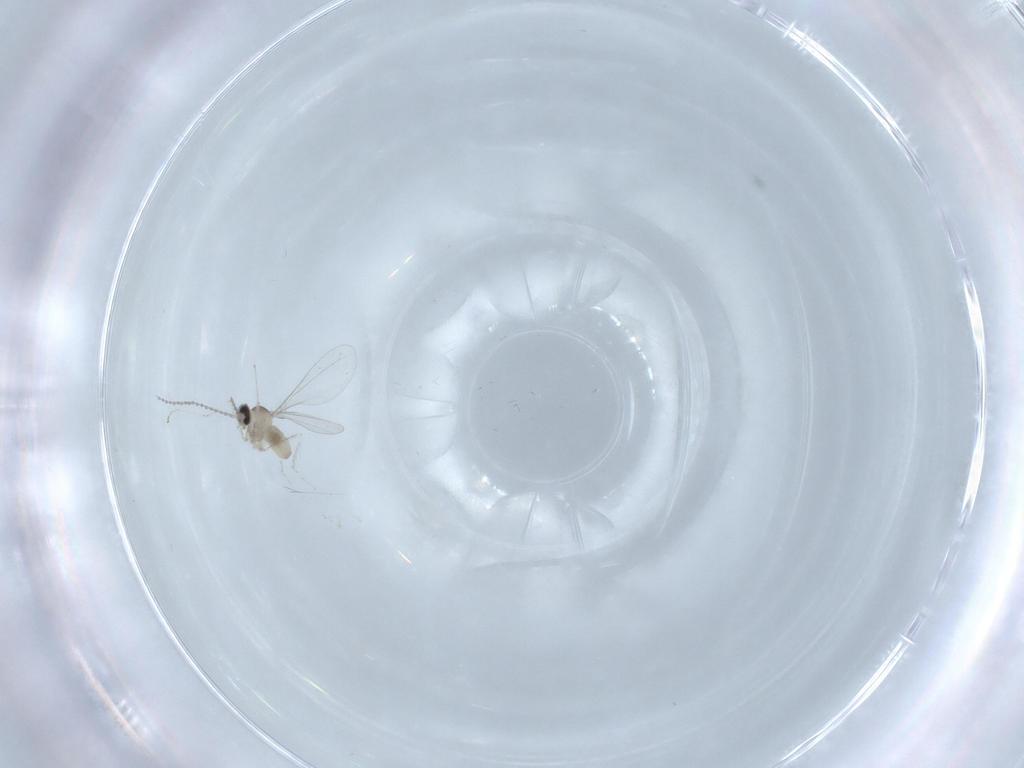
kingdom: Animalia
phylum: Arthropoda
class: Insecta
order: Diptera
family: Cecidomyiidae
